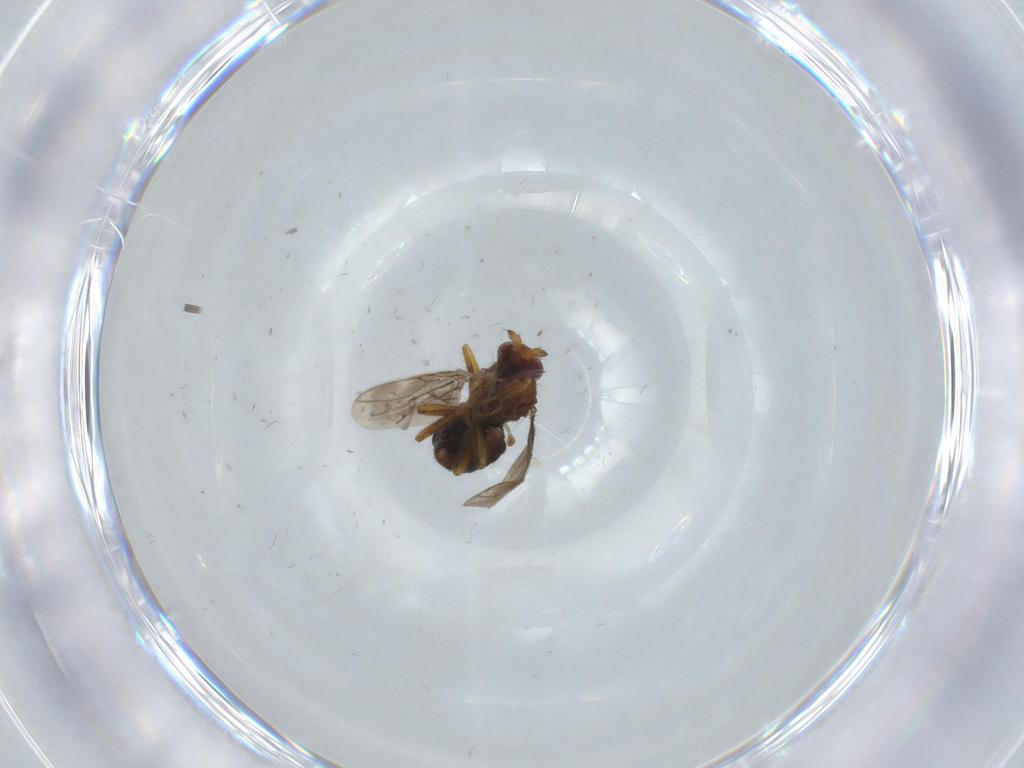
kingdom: Animalia
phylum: Arthropoda
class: Insecta
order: Diptera
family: Sphaeroceridae
